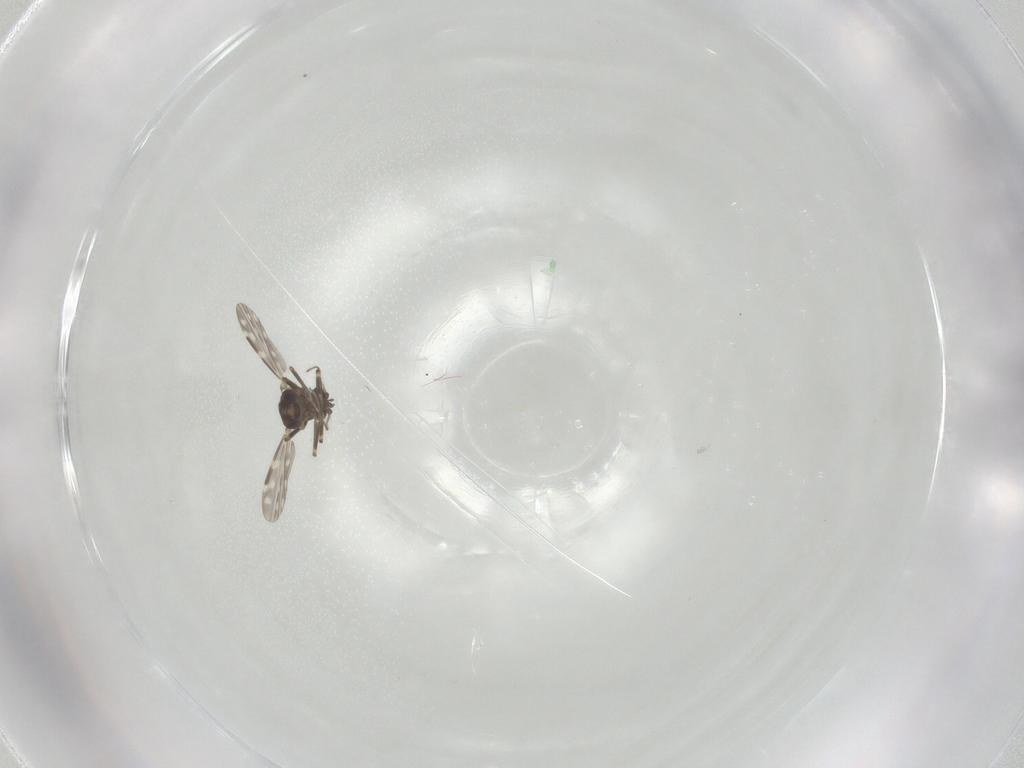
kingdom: Animalia
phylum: Arthropoda
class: Insecta
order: Diptera
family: Ceratopogonidae
